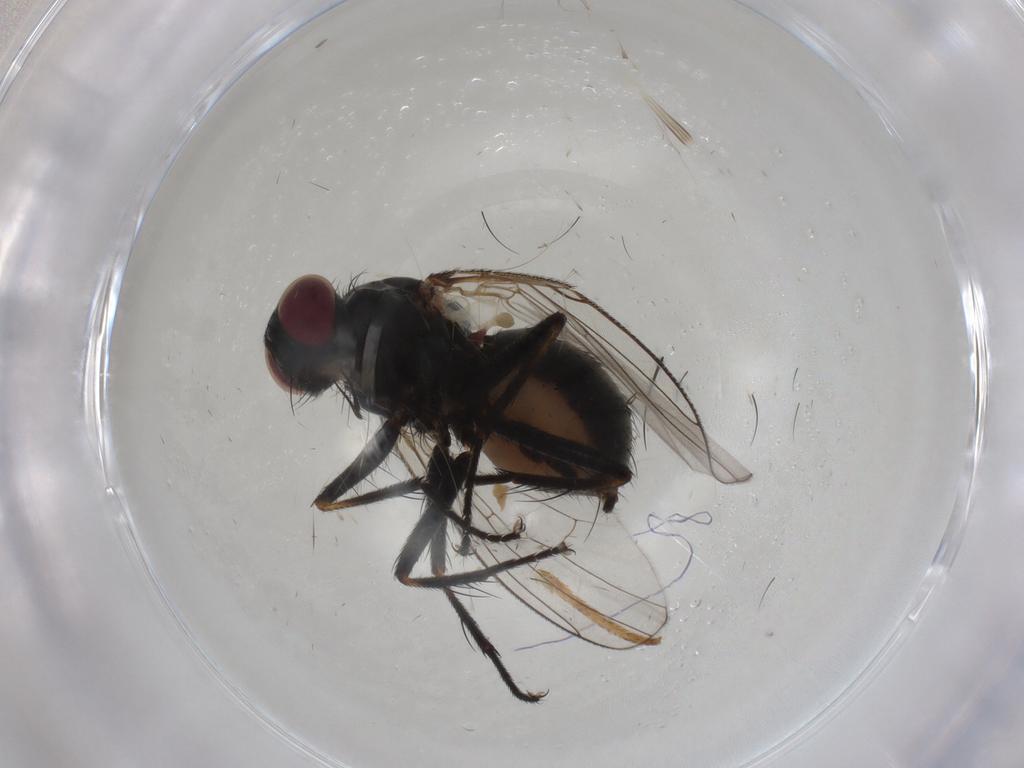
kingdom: Animalia
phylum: Arthropoda
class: Insecta
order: Diptera
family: Muscidae
